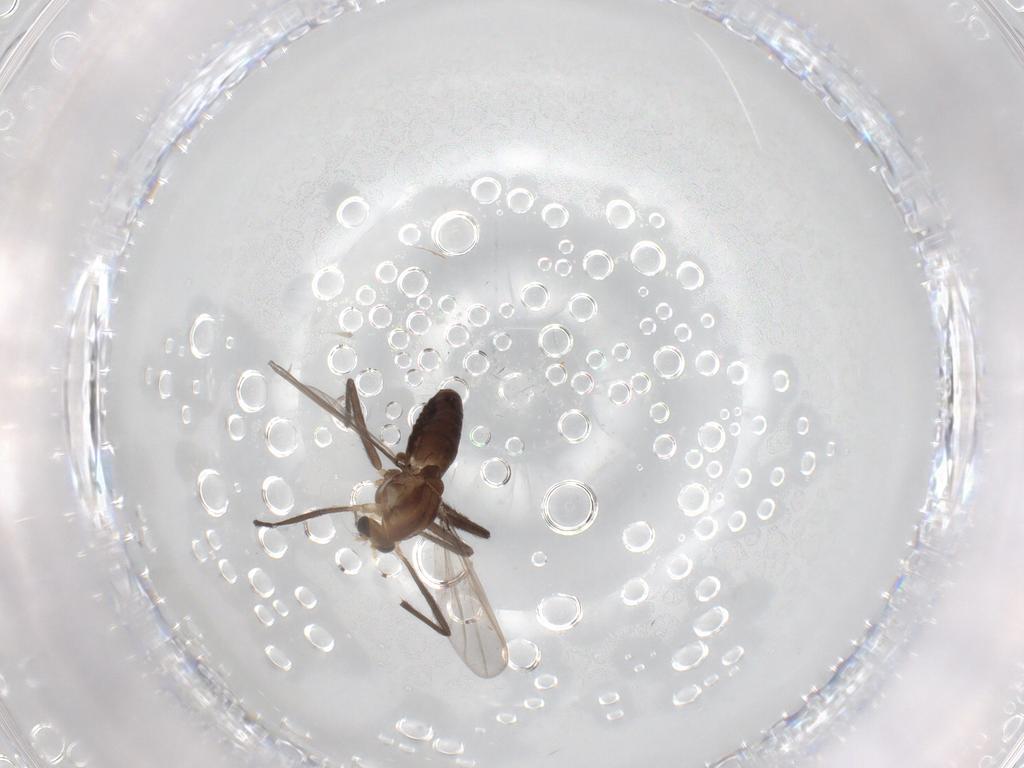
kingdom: Animalia
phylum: Arthropoda
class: Insecta
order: Diptera
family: Chironomidae
